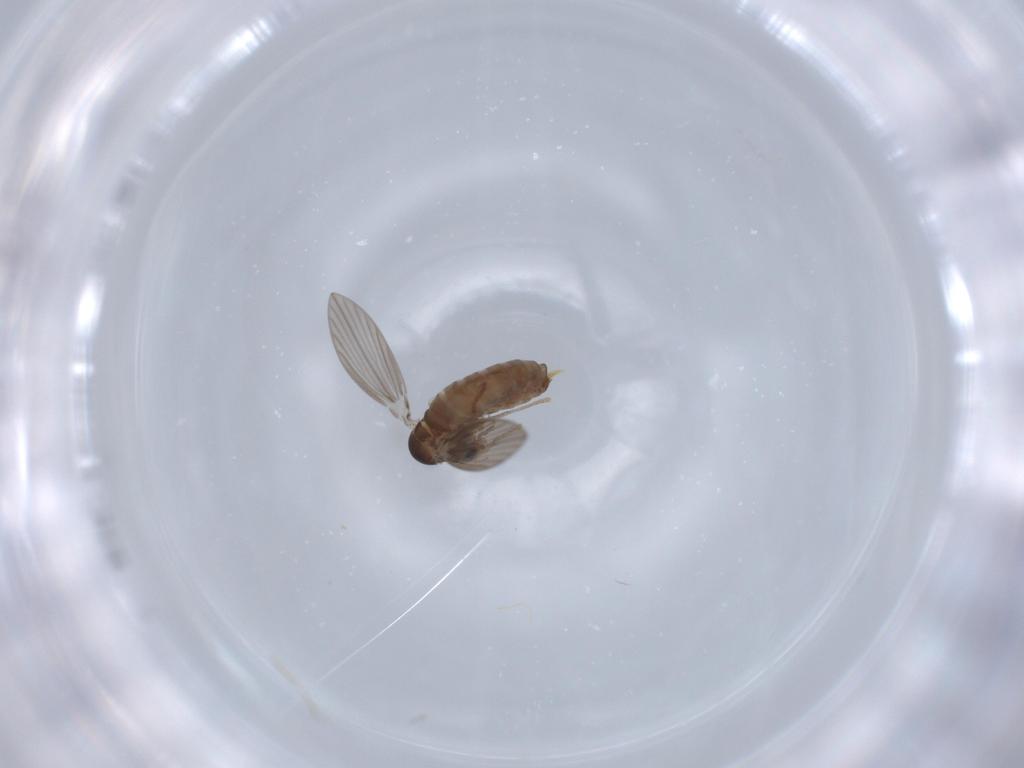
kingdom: Animalia
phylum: Arthropoda
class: Insecta
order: Diptera
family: Psychodidae
